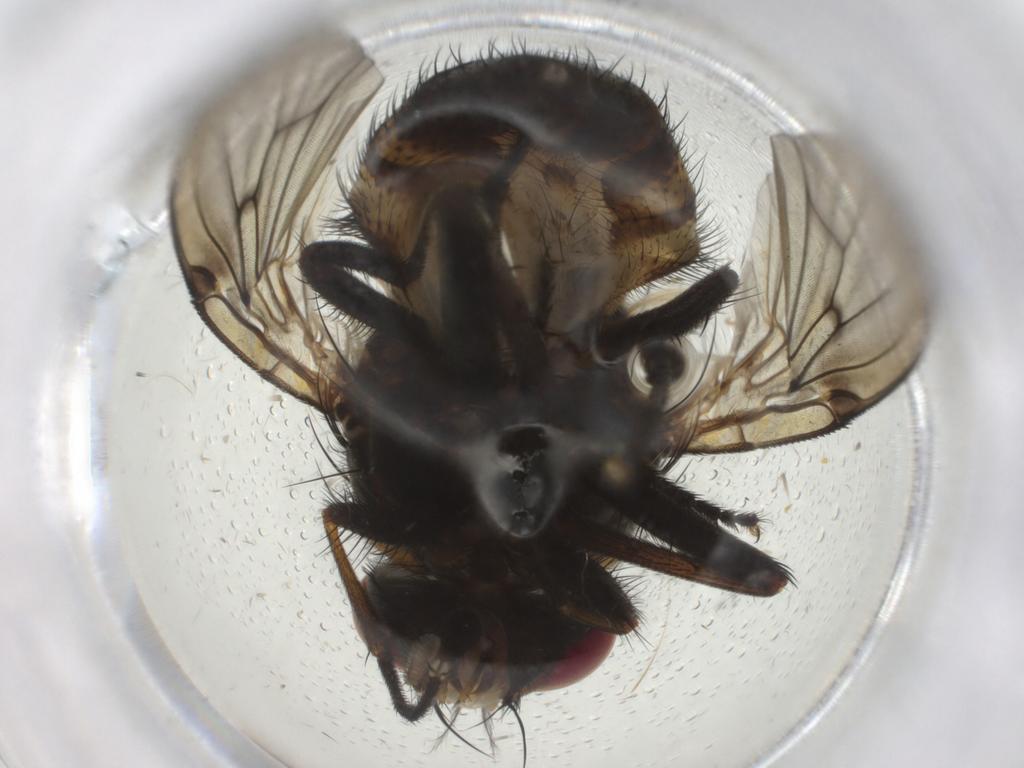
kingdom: Animalia
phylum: Arthropoda
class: Insecta
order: Diptera
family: Muscidae
